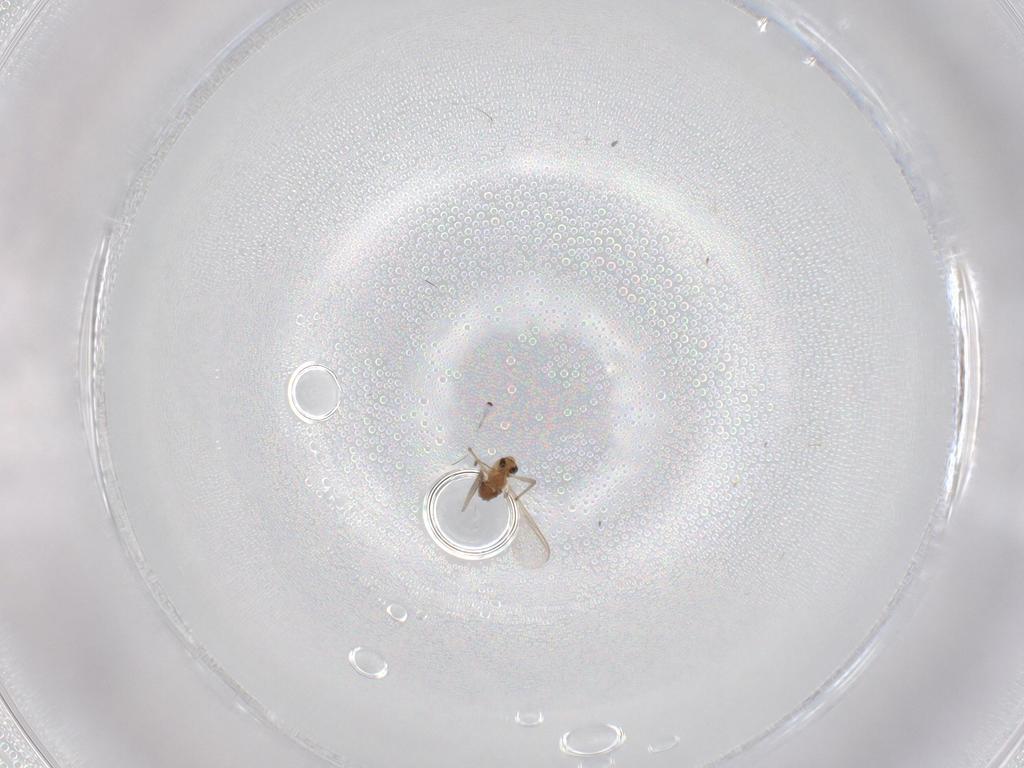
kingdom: Animalia
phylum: Arthropoda
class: Insecta
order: Diptera
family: Phoridae
